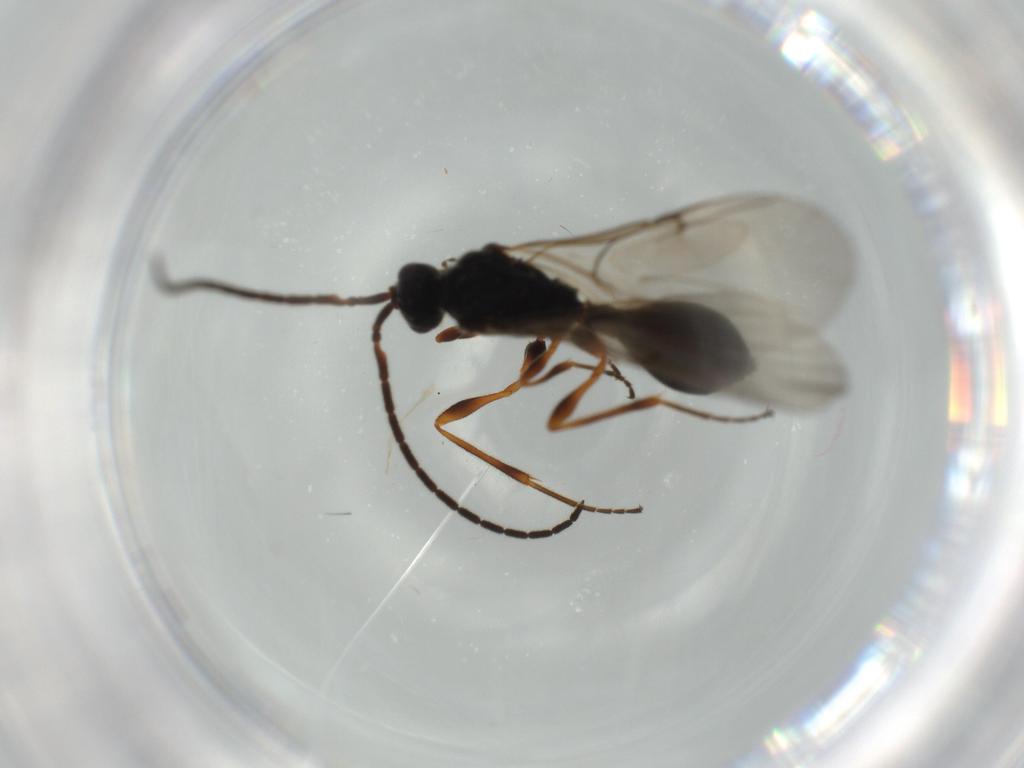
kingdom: Animalia
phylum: Arthropoda
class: Insecta
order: Hymenoptera
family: Diapriidae
